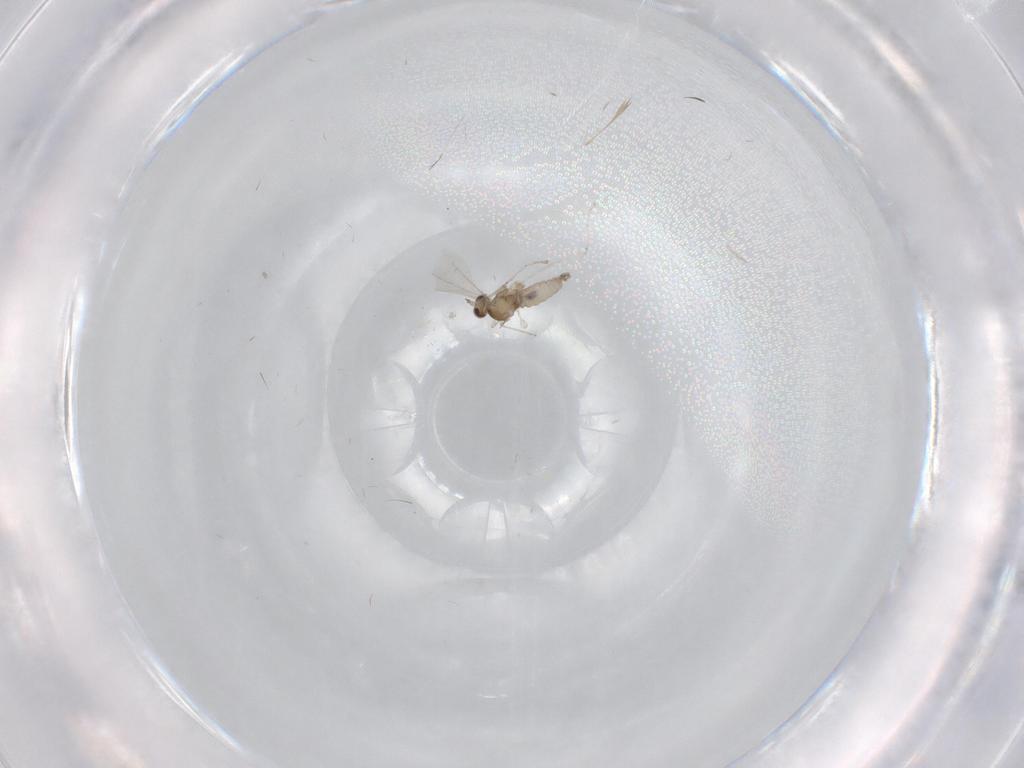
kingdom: Animalia
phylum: Arthropoda
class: Insecta
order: Diptera
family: Cecidomyiidae
